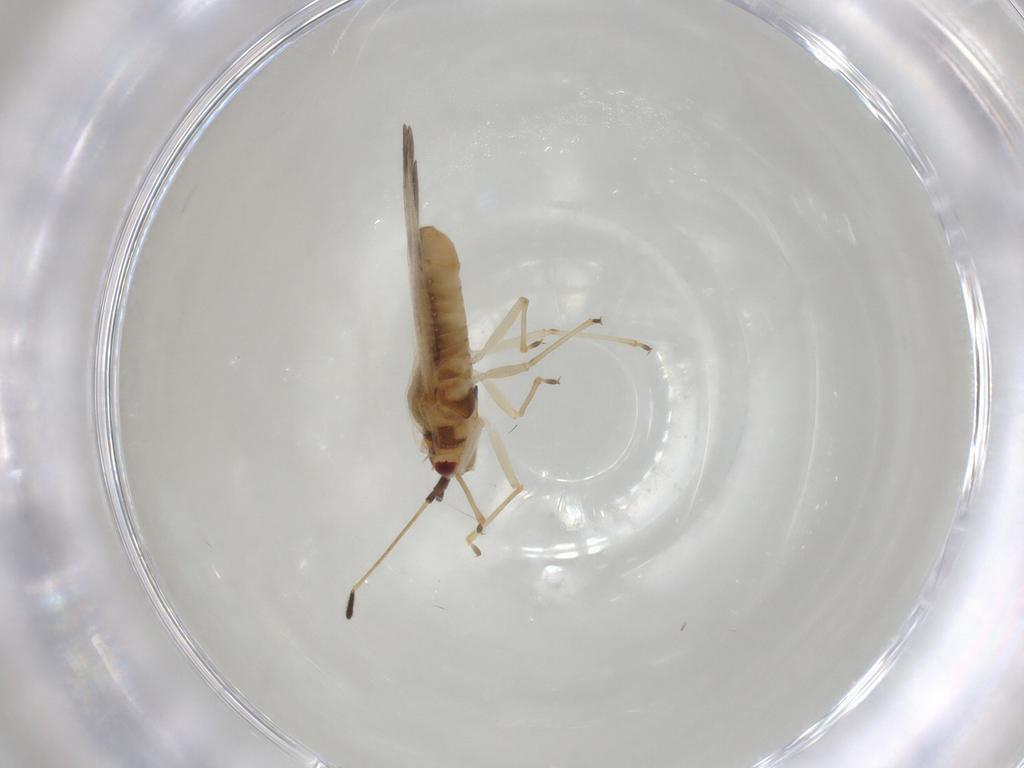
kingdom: Animalia
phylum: Arthropoda
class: Insecta
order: Hemiptera
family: Tingidae
